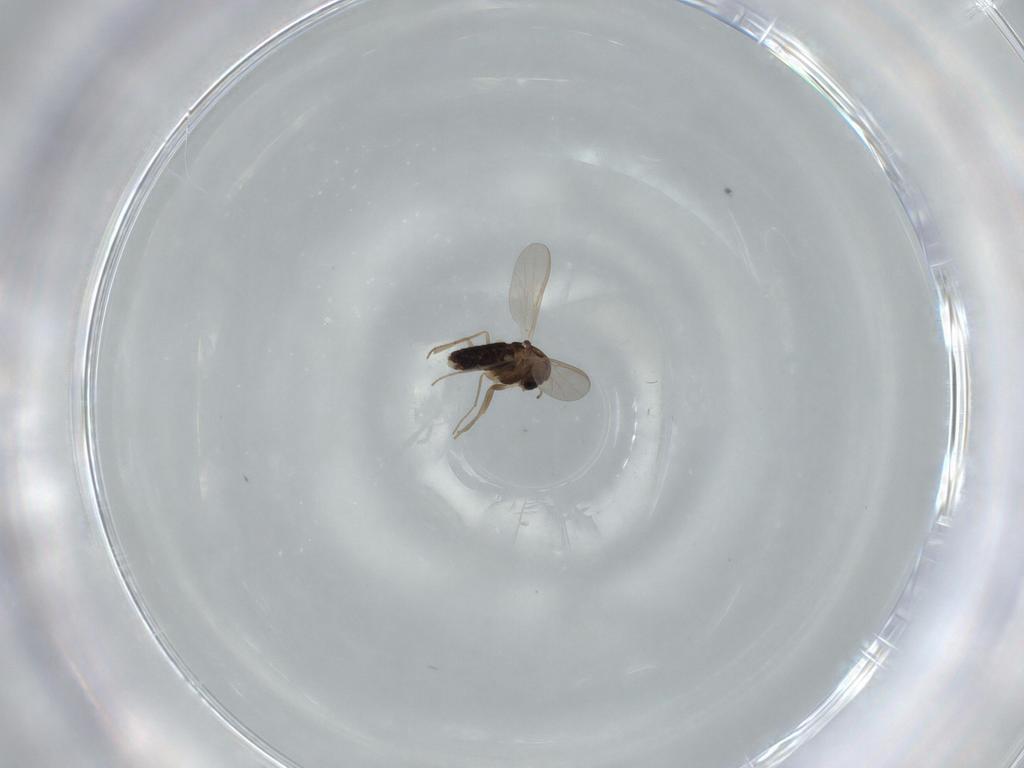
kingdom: Animalia
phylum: Arthropoda
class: Insecta
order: Diptera
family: Chironomidae
